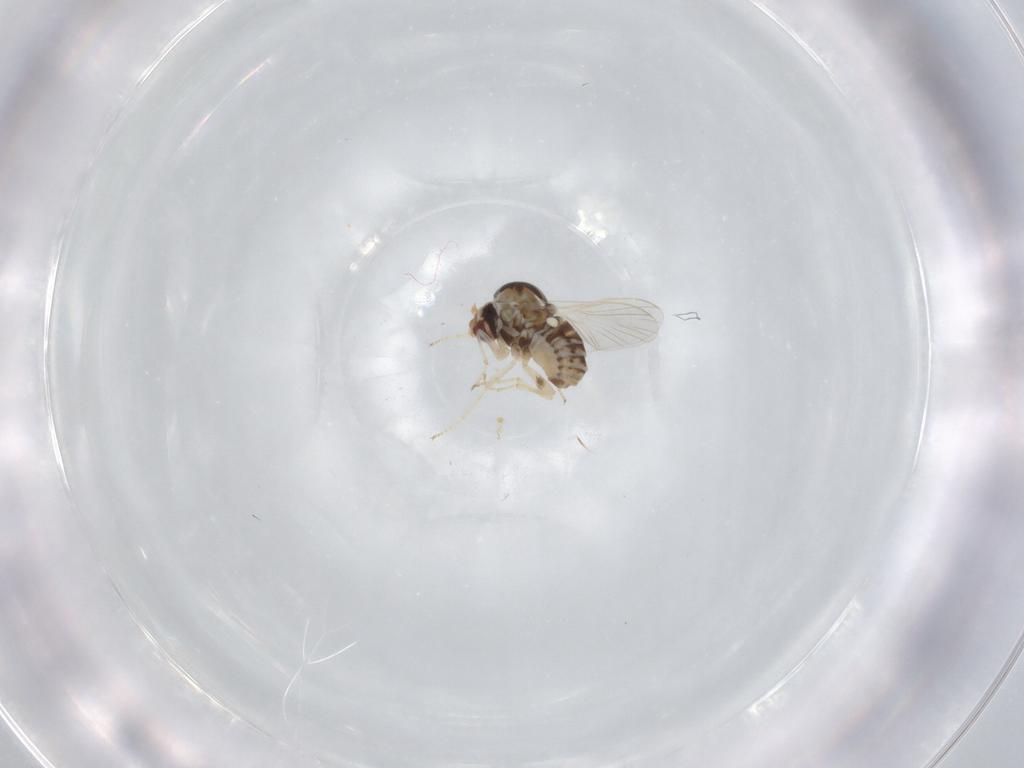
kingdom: Animalia
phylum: Arthropoda
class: Insecta
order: Diptera
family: Bombyliidae
